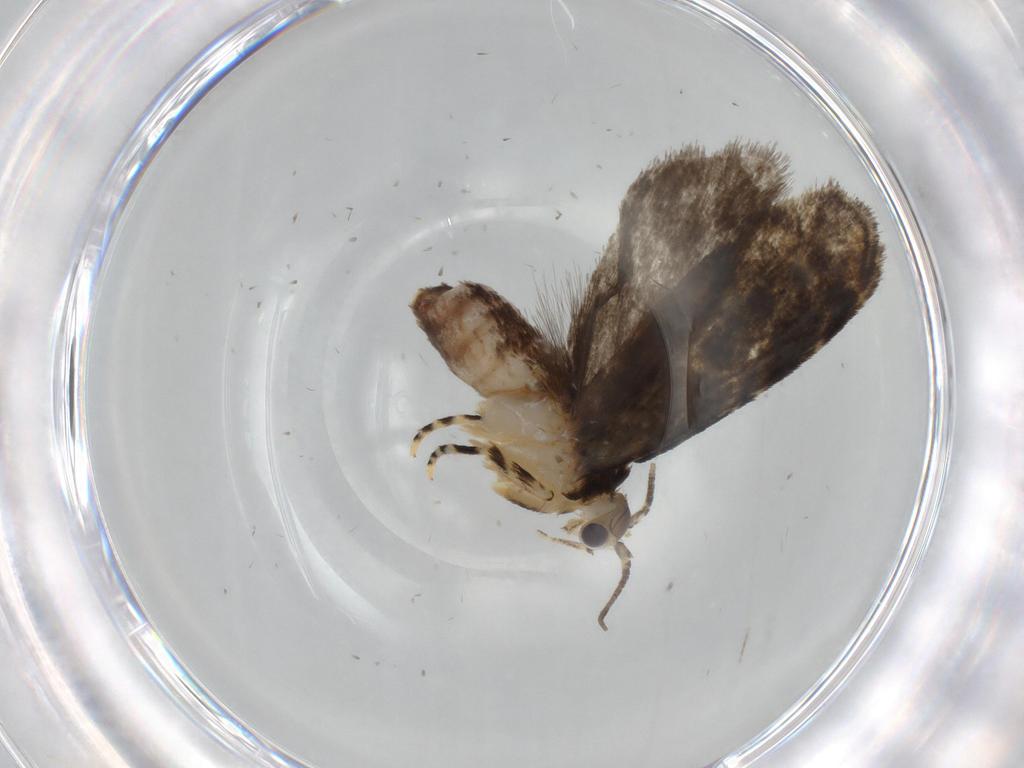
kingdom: Animalia
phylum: Arthropoda
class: Insecta
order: Lepidoptera
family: Tineidae
